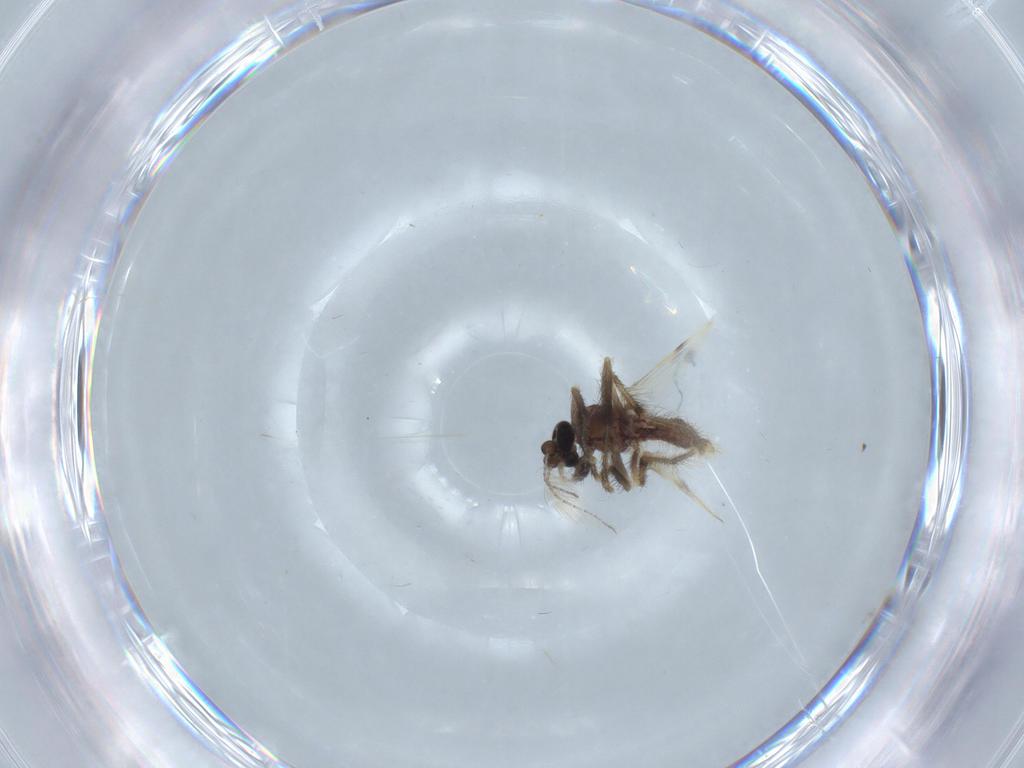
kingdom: Animalia
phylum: Arthropoda
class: Insecta
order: Diptera
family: Corethrellidae
